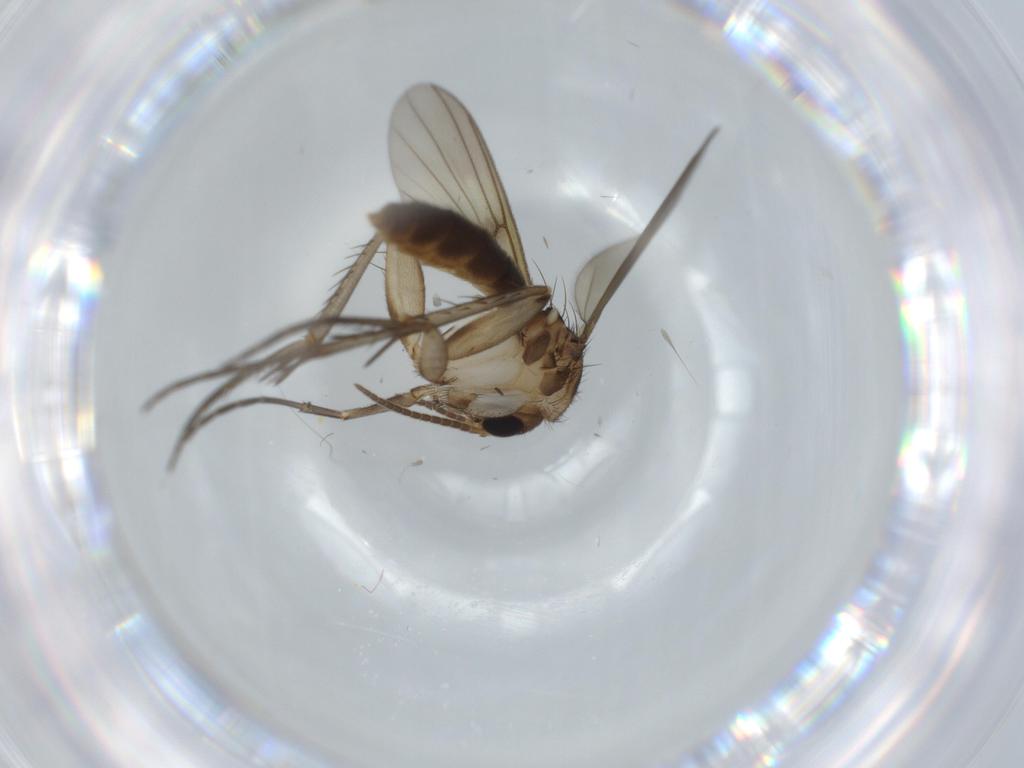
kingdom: Animalia
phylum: Arthropoda
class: Insecta
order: Diptera
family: Mycetophilidae
